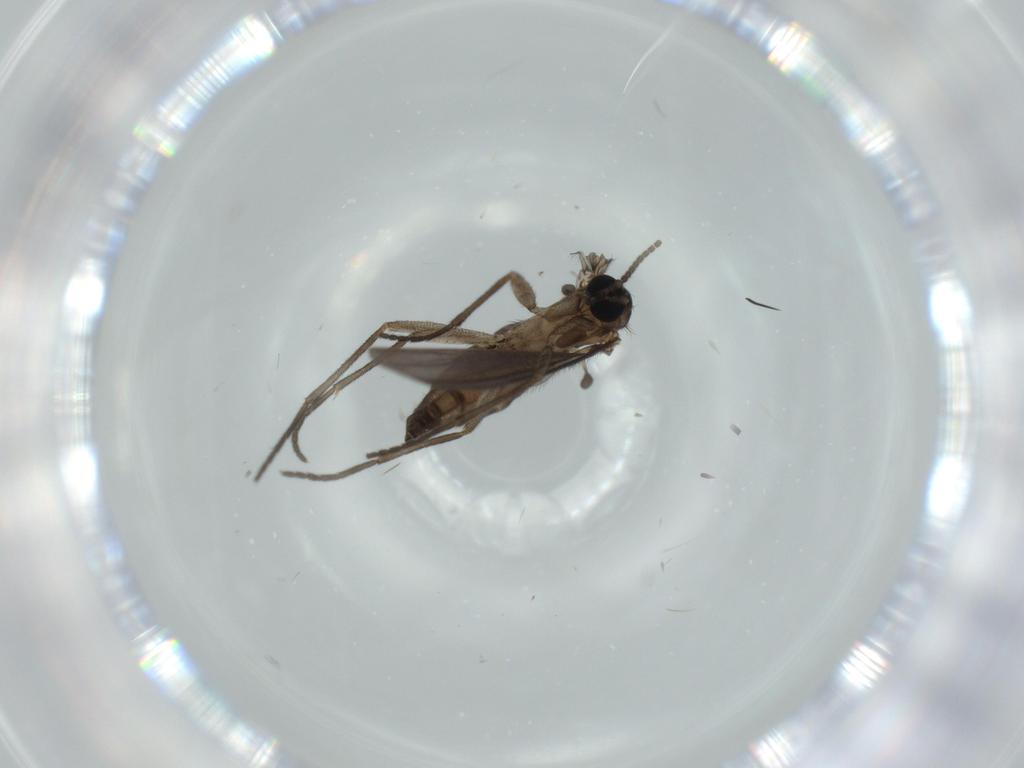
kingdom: Animalia
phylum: Arthropoda
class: Insecta
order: Diptera
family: Sciaridae
